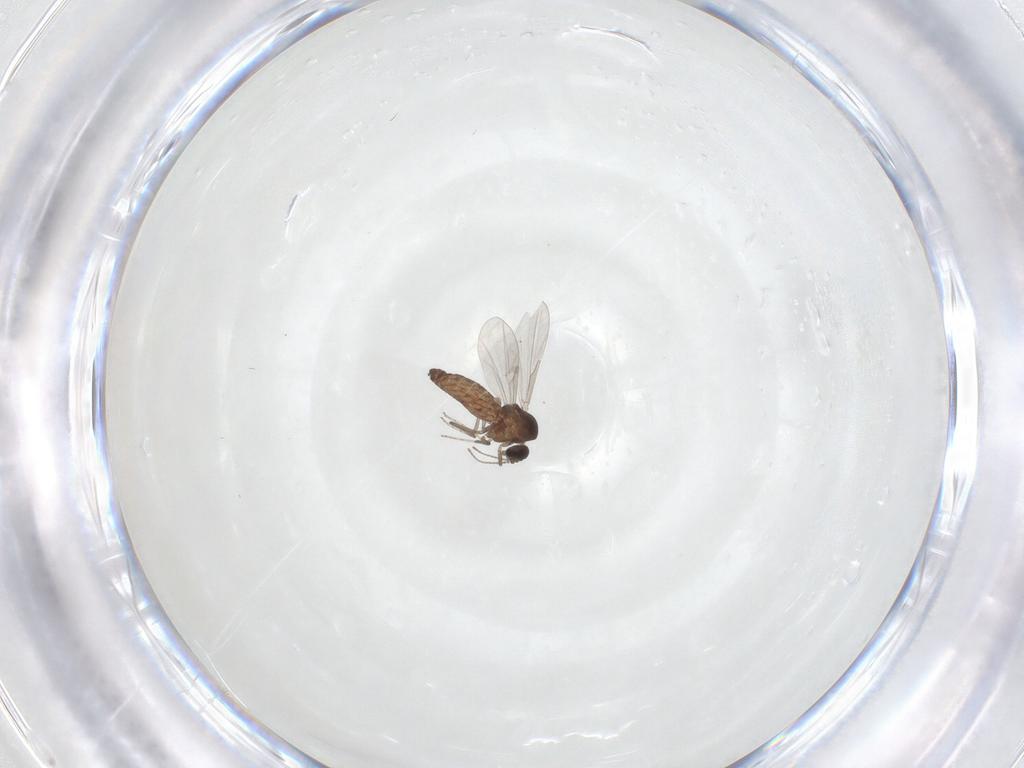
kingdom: Animalia
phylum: Arthropoda
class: Insecta
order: Diptera
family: Ceratopogonidae
